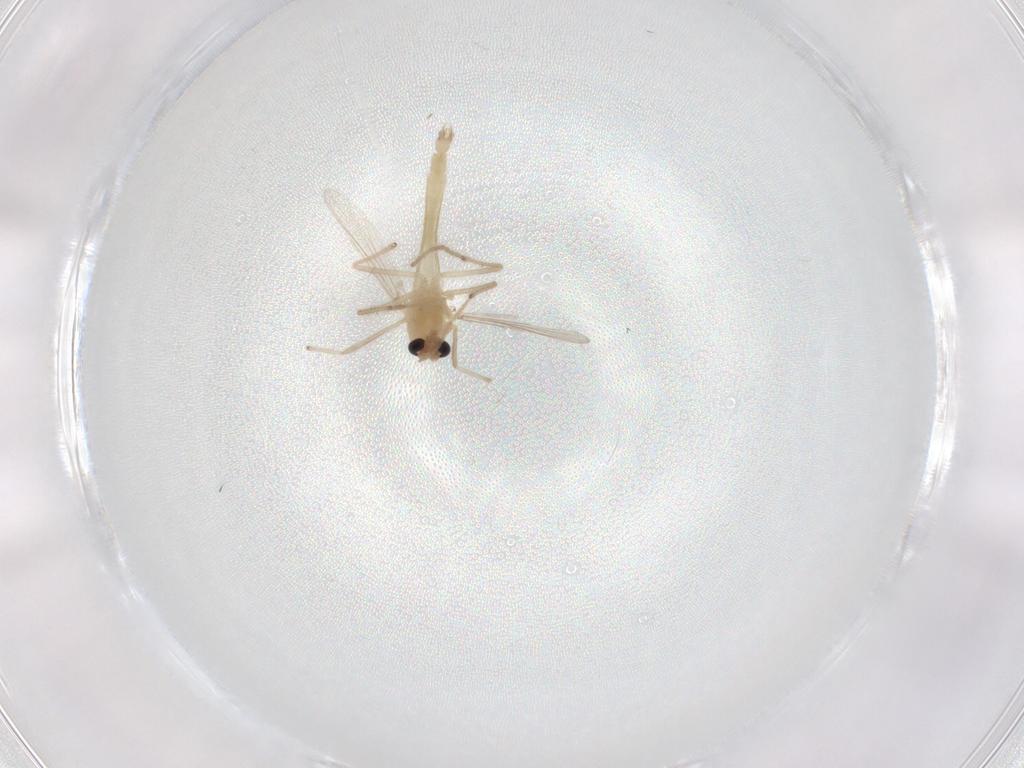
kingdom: Animalia
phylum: Arthropoda
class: Insecta
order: Diptera
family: Chironomidae
